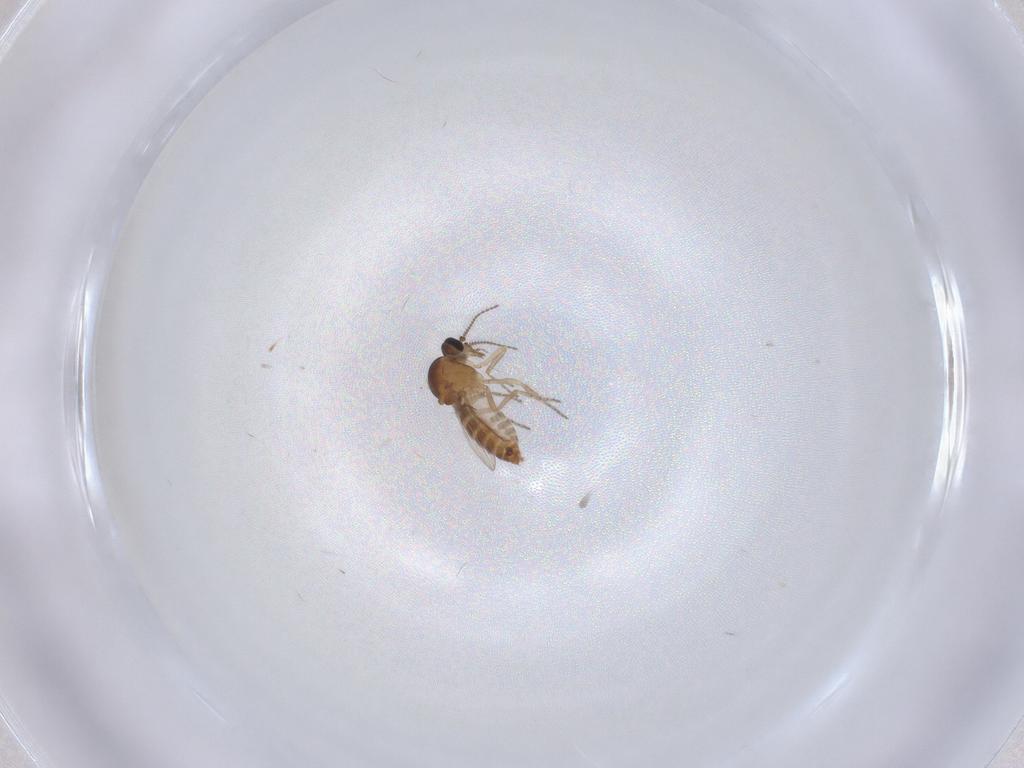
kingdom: Animalia
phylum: Arthropoda
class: Insecta
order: Diptera
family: Ceratopogonidae
